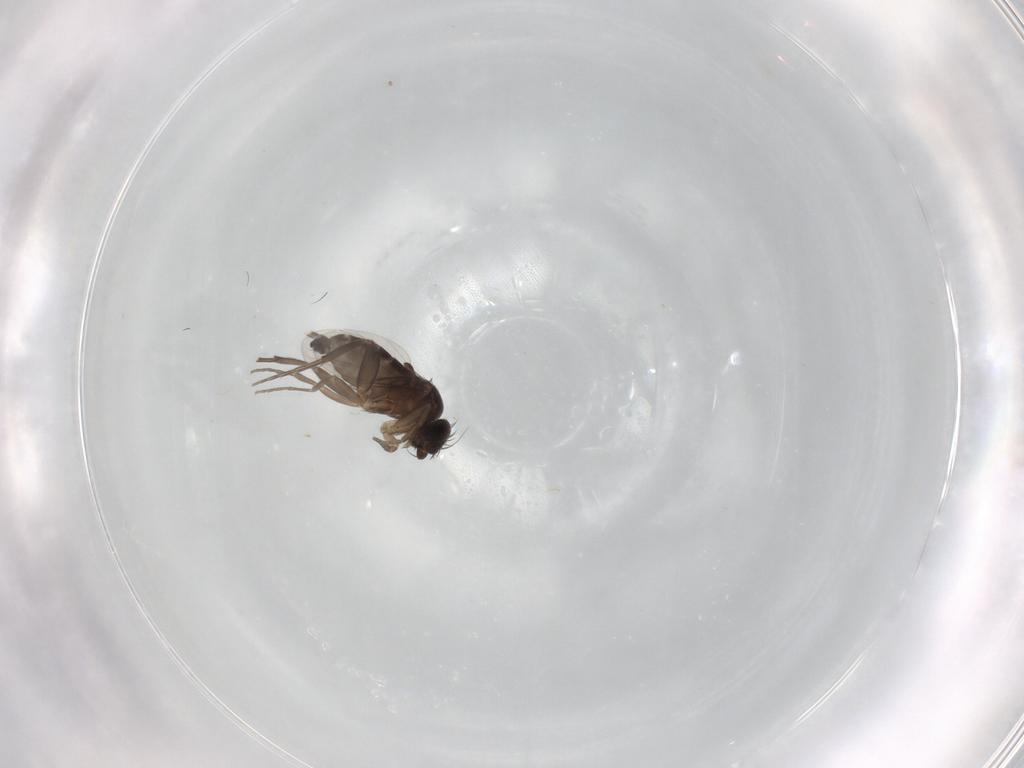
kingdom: Animalia
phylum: Arthropoda
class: Insecta
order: Diptera
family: Phoridae
